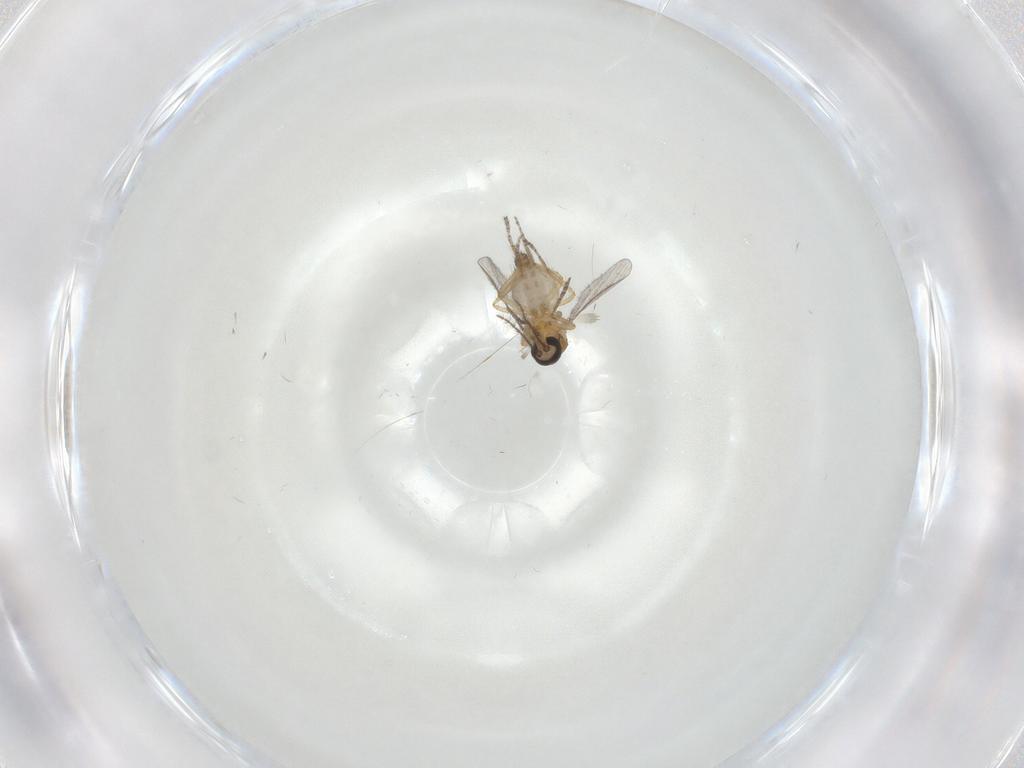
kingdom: Animalia
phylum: Arthropoda
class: Insecta
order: Diptera
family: Ceratopogonidae
